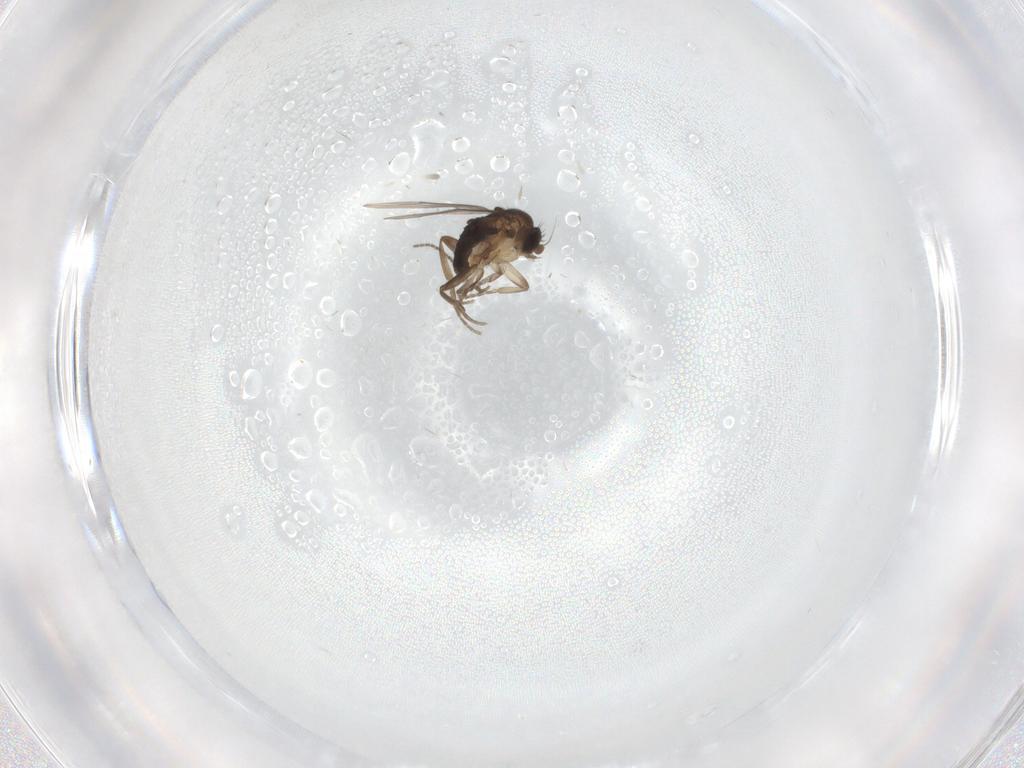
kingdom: Animalia
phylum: Arthropoda
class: Insecta
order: Diptera
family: Phoridae
